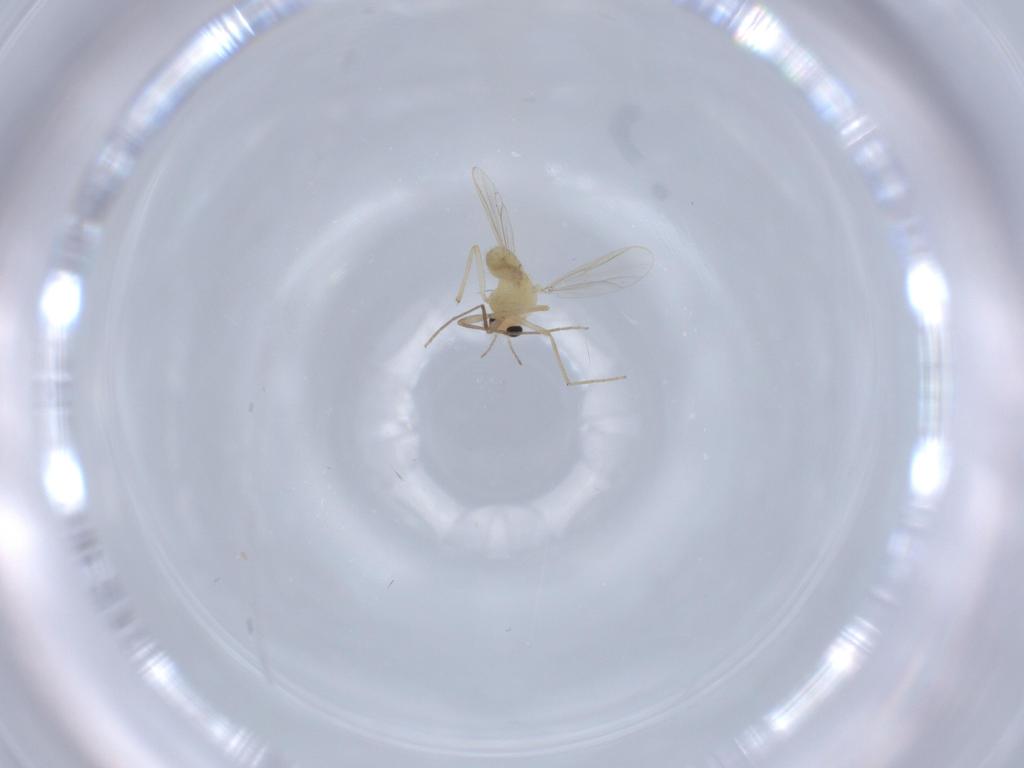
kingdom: Animalia
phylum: Arthropoda
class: Insecta
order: Diptera
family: Chironomidae
